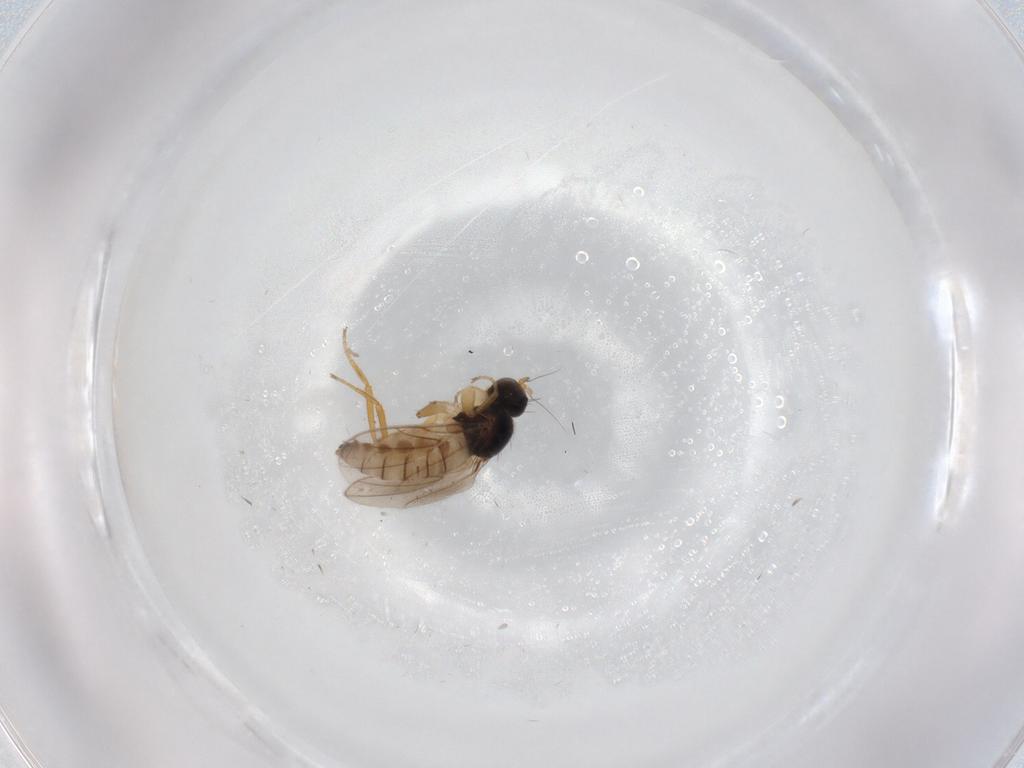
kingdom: Animalia
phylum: Arthropoda
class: Insecta
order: Diptera
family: Hybotidae
